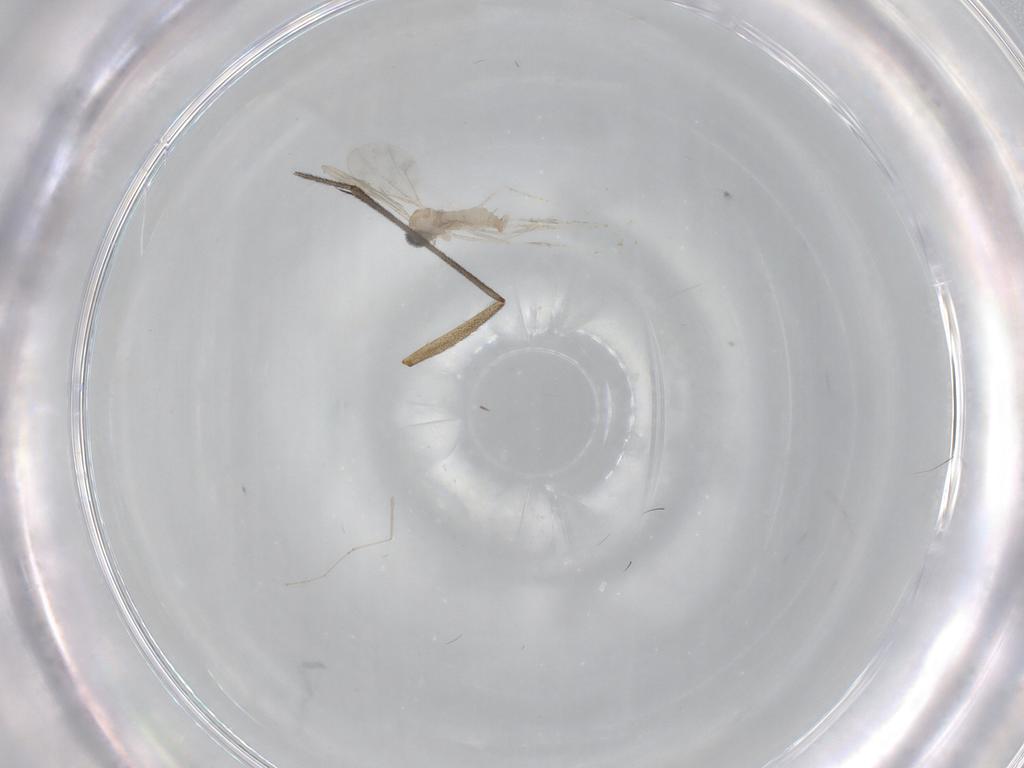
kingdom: Animalia
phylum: Arthropoda
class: Insecta
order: Diptera
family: Ditomyiidae
